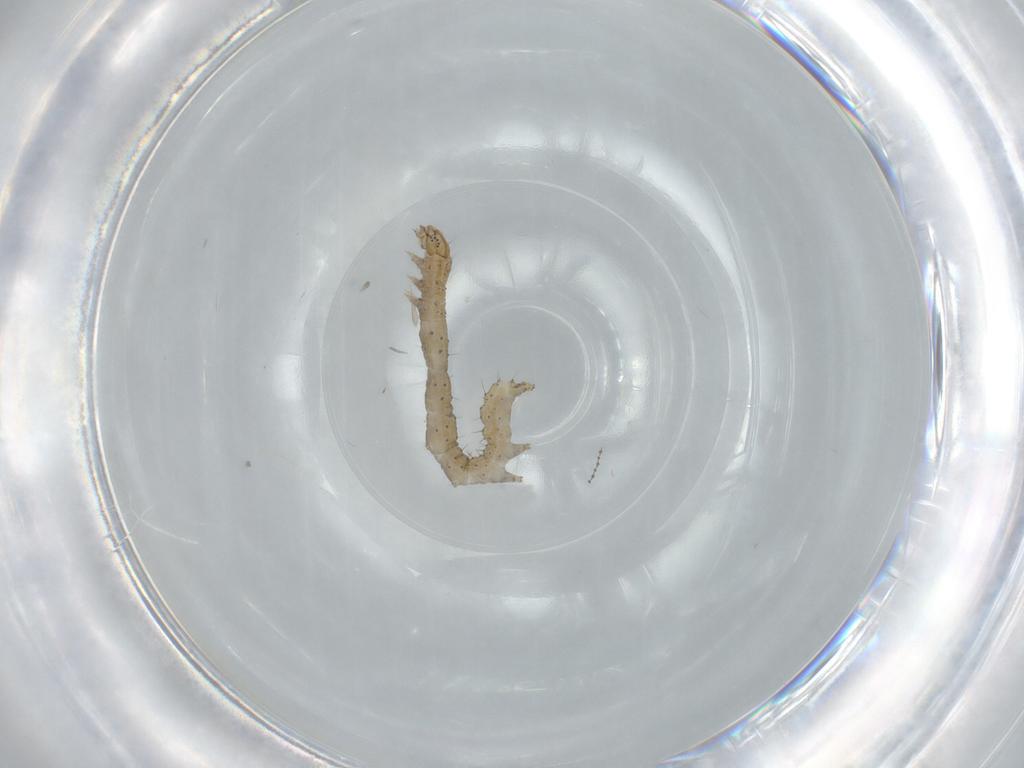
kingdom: Animalia
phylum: Arthropoda
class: Insecta
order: Lepidoptera
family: Erebidae
